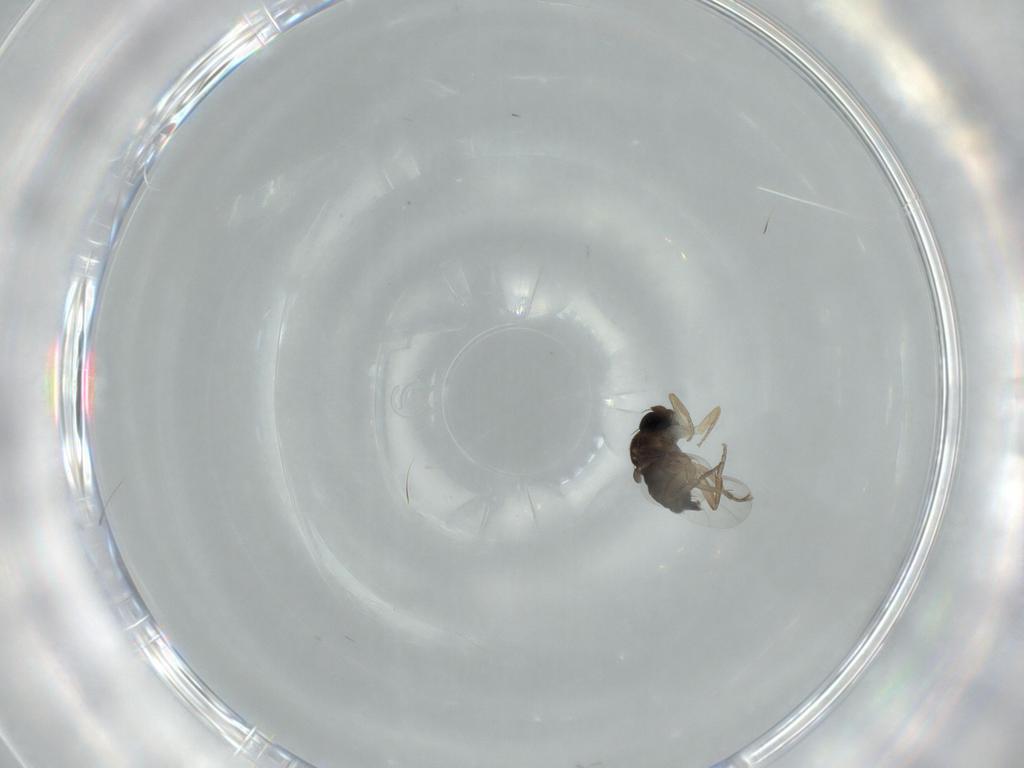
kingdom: Animalia
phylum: Arthropoda
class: Insecta
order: Diptera
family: Phoridae
